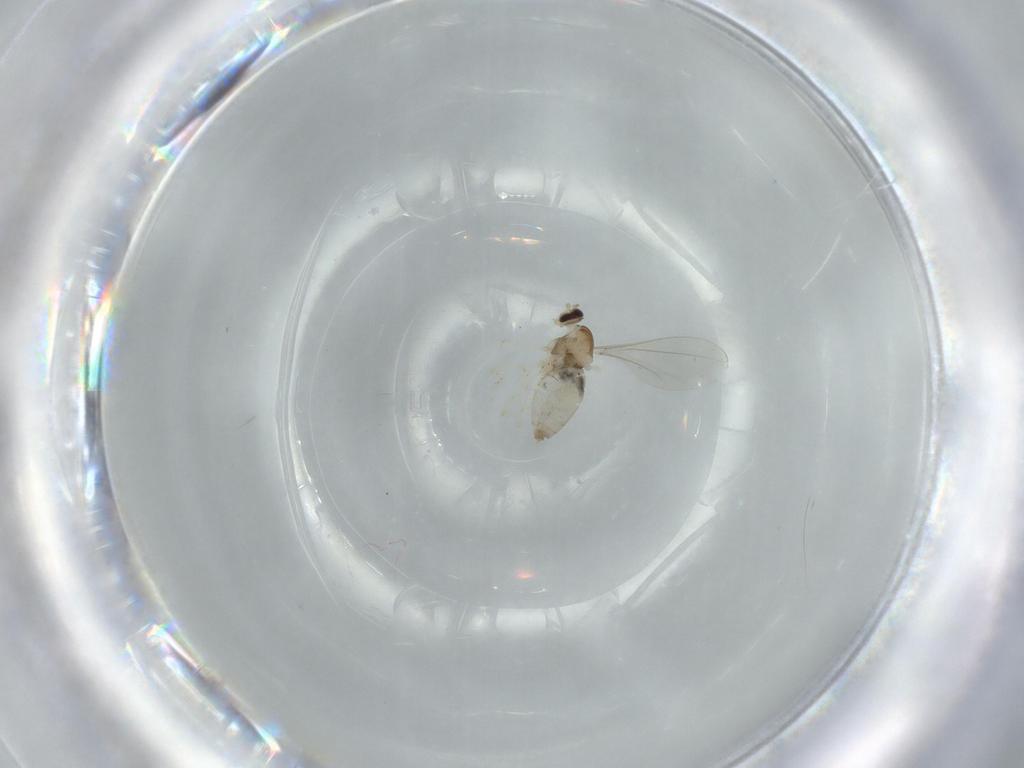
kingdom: Animalia
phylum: Arthropoda
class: Insecta
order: Diptera
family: Cecidomyiidae
